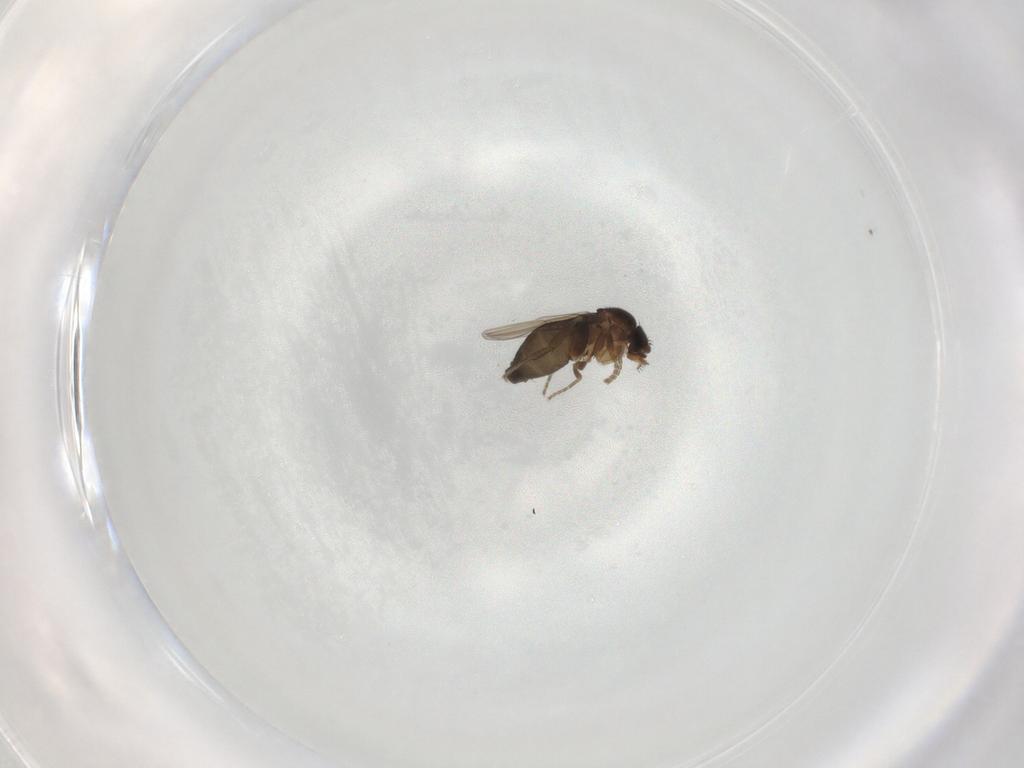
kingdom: Animalia
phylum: Arthropoda
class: Insecta
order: Diptera
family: Phoridae
